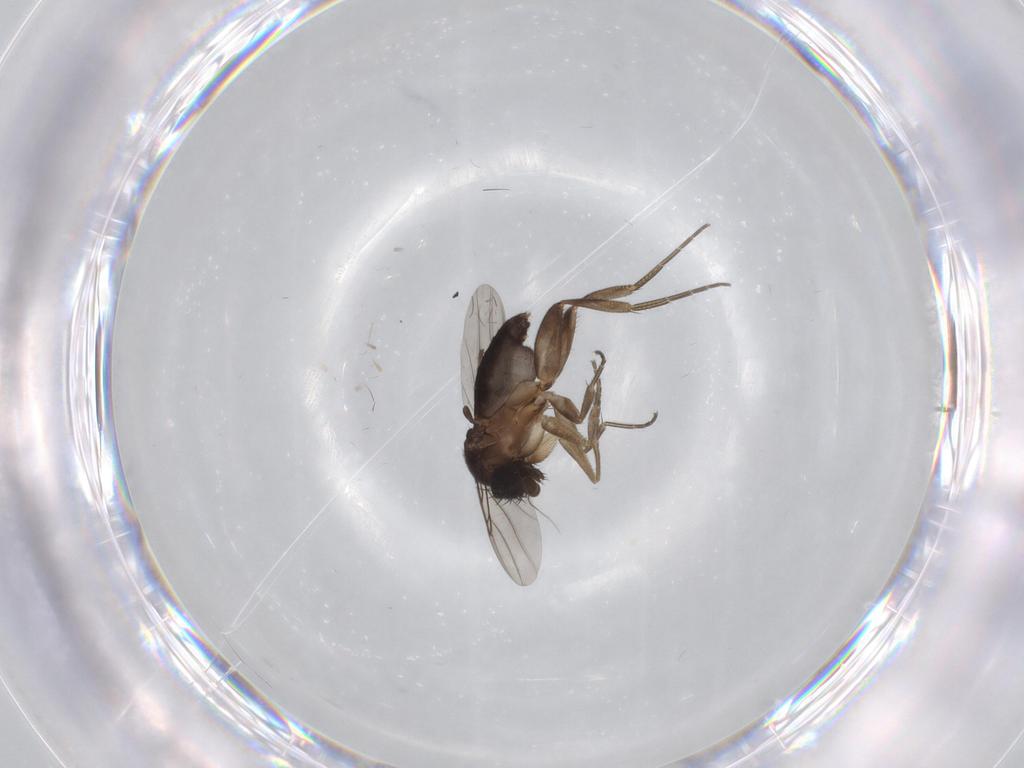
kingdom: Animalia
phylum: Arthropoda
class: Insecta
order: Diptera
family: Phoridae
